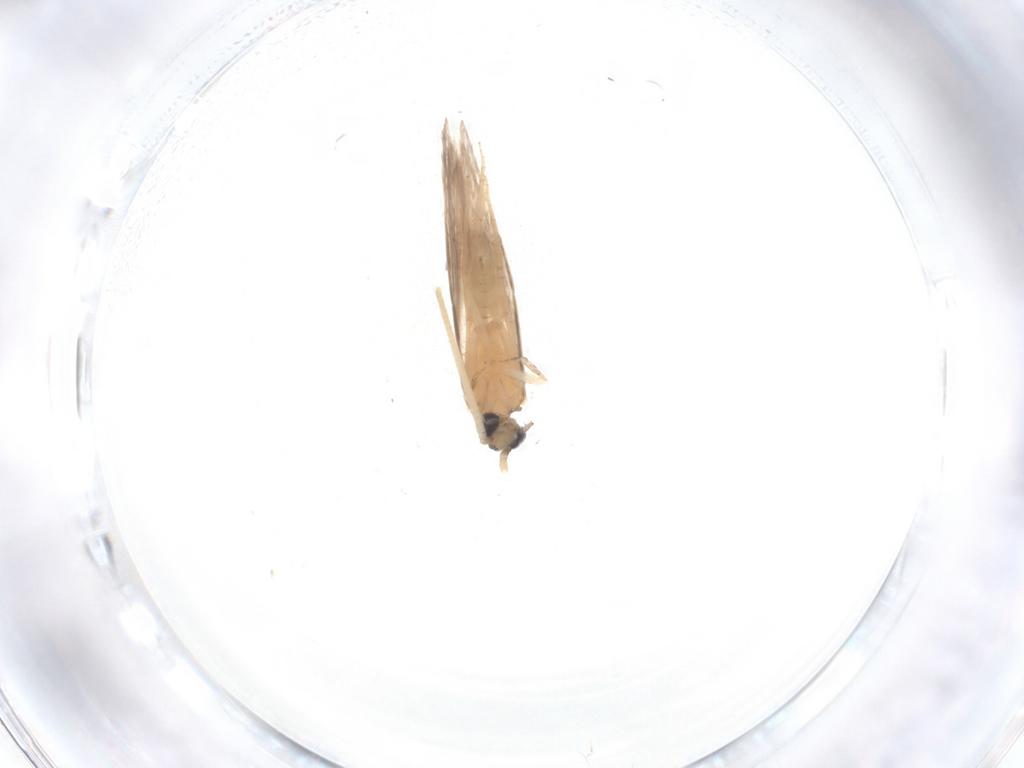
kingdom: Animalia
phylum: Arthropoda
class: Insecta
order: Trichoptera
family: Hydroptilidae
